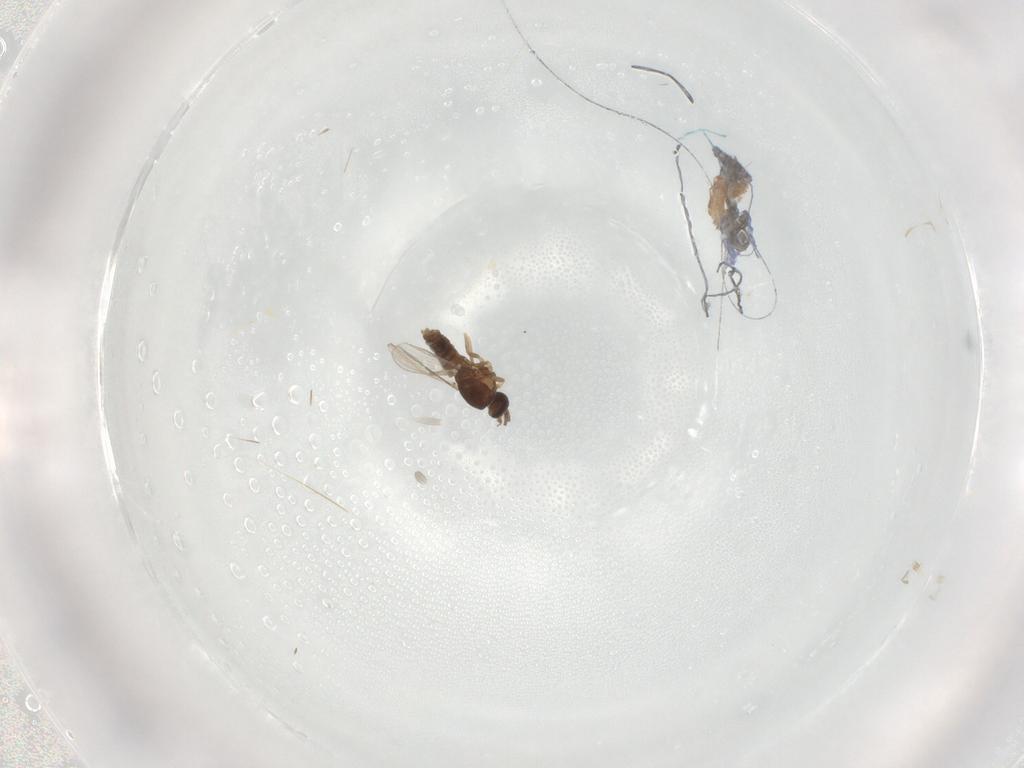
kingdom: Animalia
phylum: Arthropoda
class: Insecta
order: Diptera
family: Ceratopogonidae
